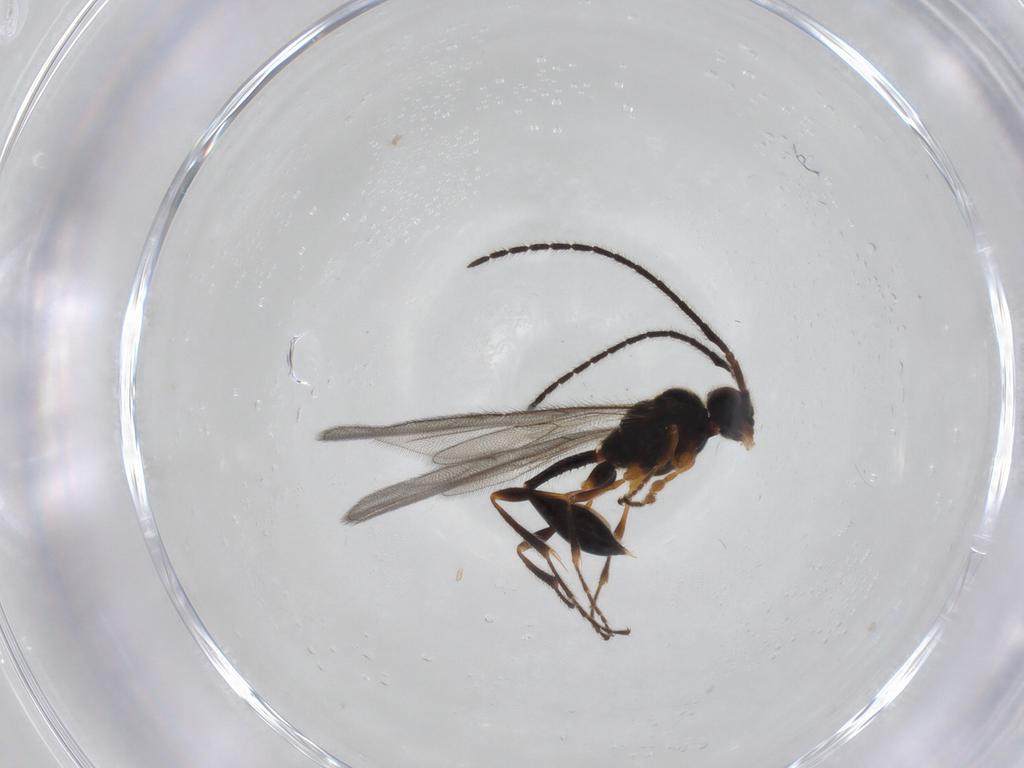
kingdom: Animalia
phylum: Arthropoda
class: Insecta
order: Hymenoptera
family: Diapriidae
